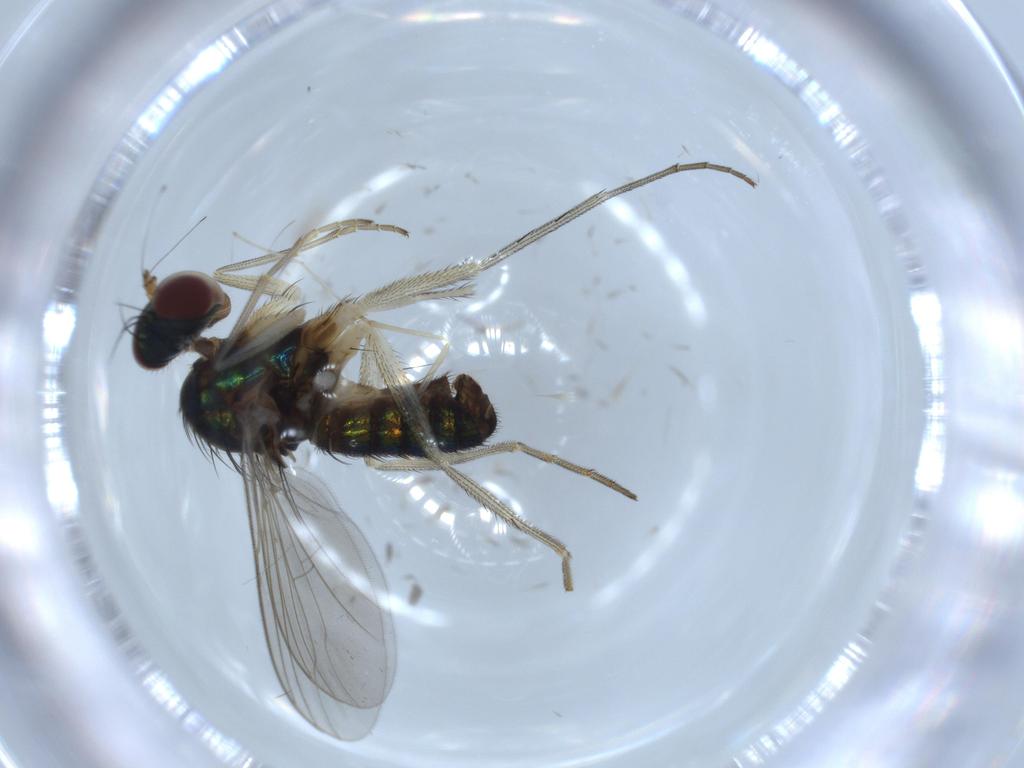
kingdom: Animalia
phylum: Arthropoda
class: Insecta
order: Diptera
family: Dolichopodidae
